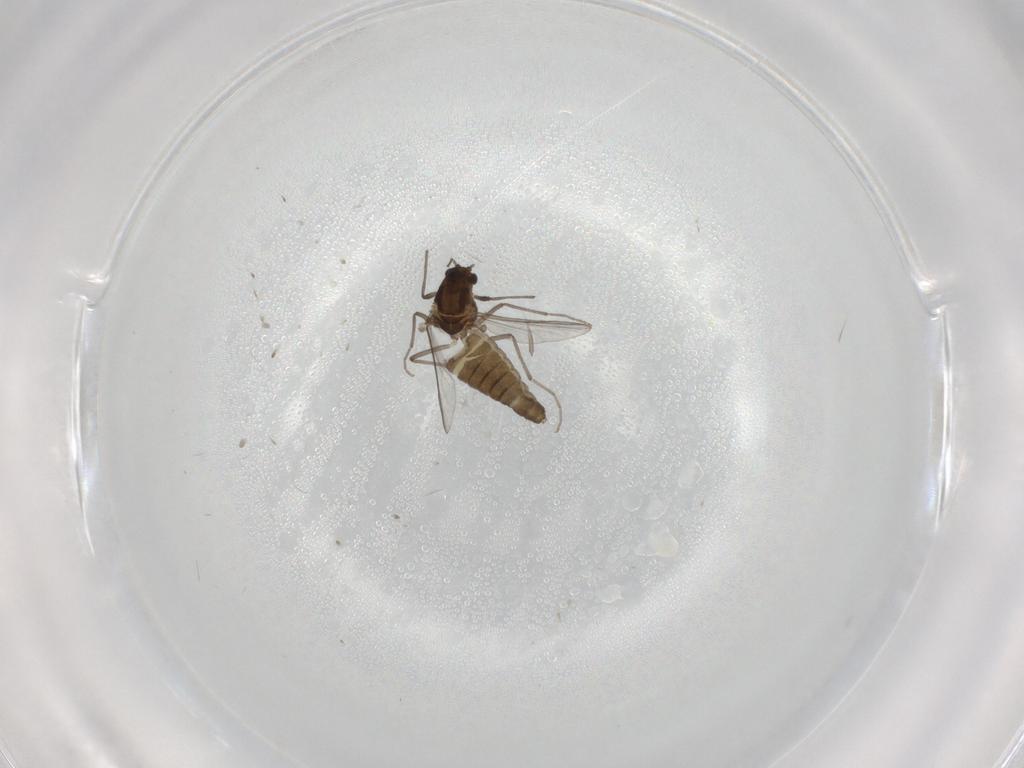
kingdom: Animalia
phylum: Arthropoda
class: Insecta
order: Diptera
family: Chironomidae
